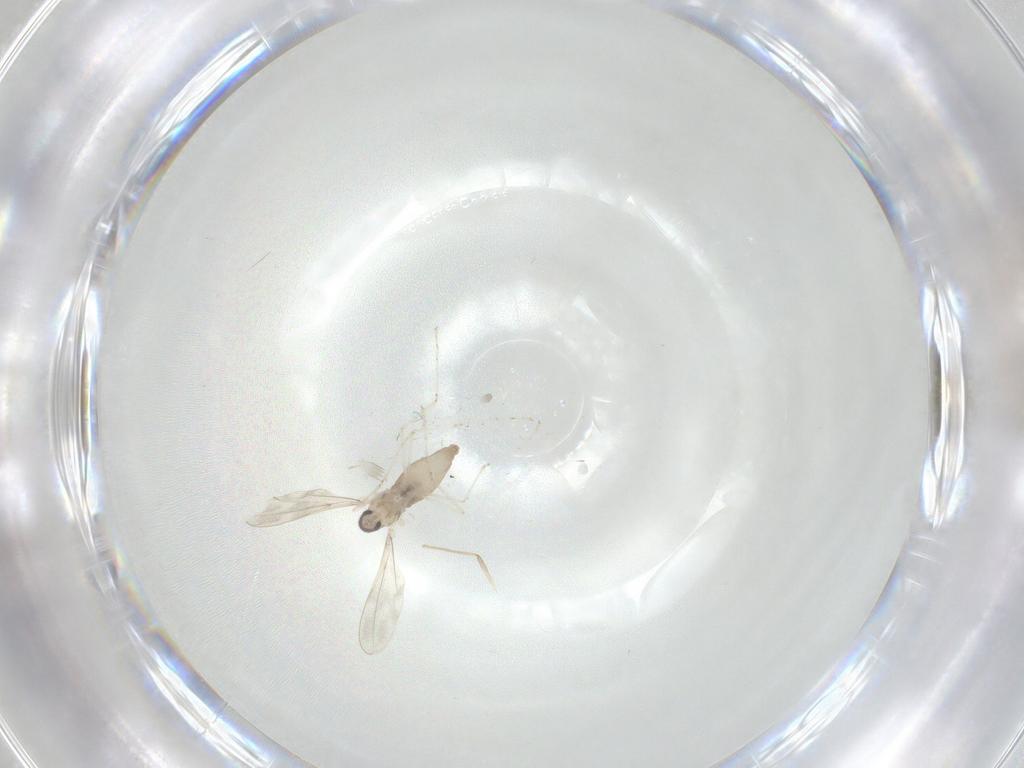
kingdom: Animalia
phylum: Arthropoda
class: Insecta
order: Diptera
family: Cecidomyiidae
